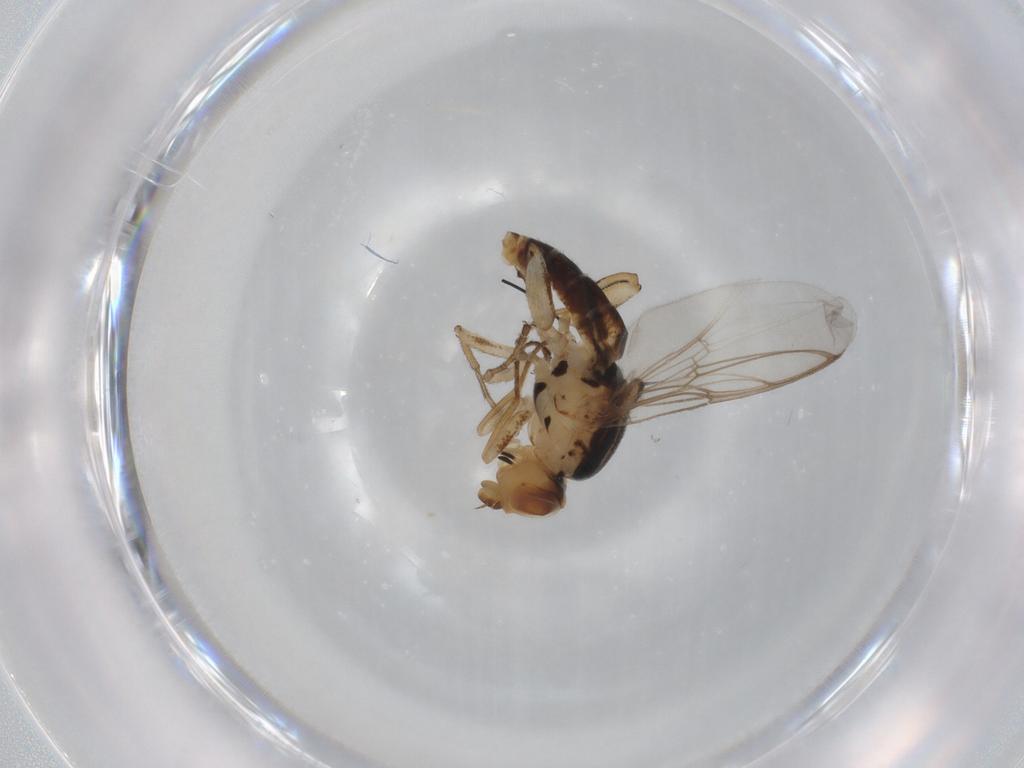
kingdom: Animalia
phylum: Arthropoda
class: Insecta
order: Diptera
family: Chloropidae
